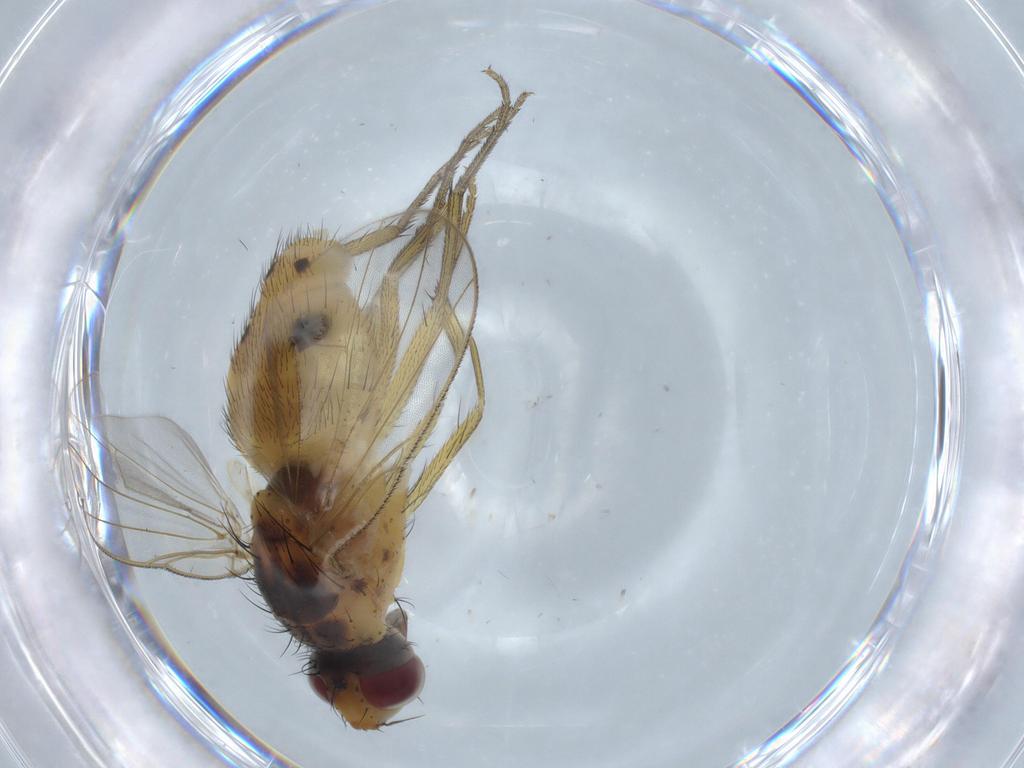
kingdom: Animalia
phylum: Arthropoda
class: Insecta
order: Diptera
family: Muscidae
